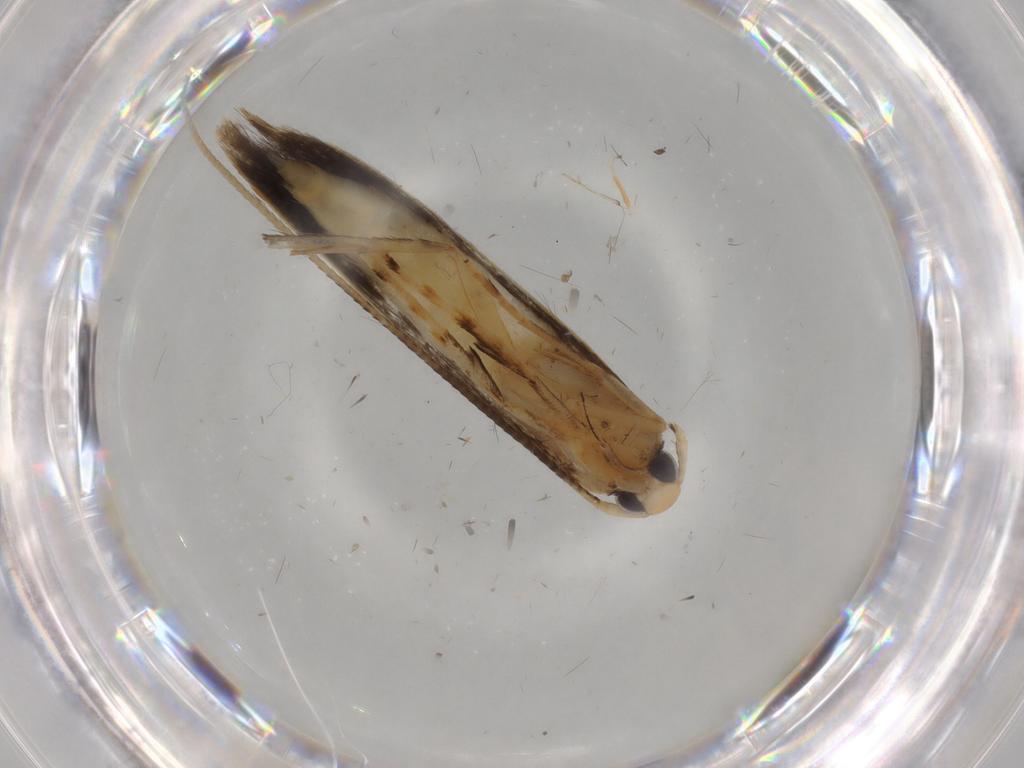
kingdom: Animalia
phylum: Arthropoda
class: Insecta
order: Lepidoptera
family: Pterolonchidae
